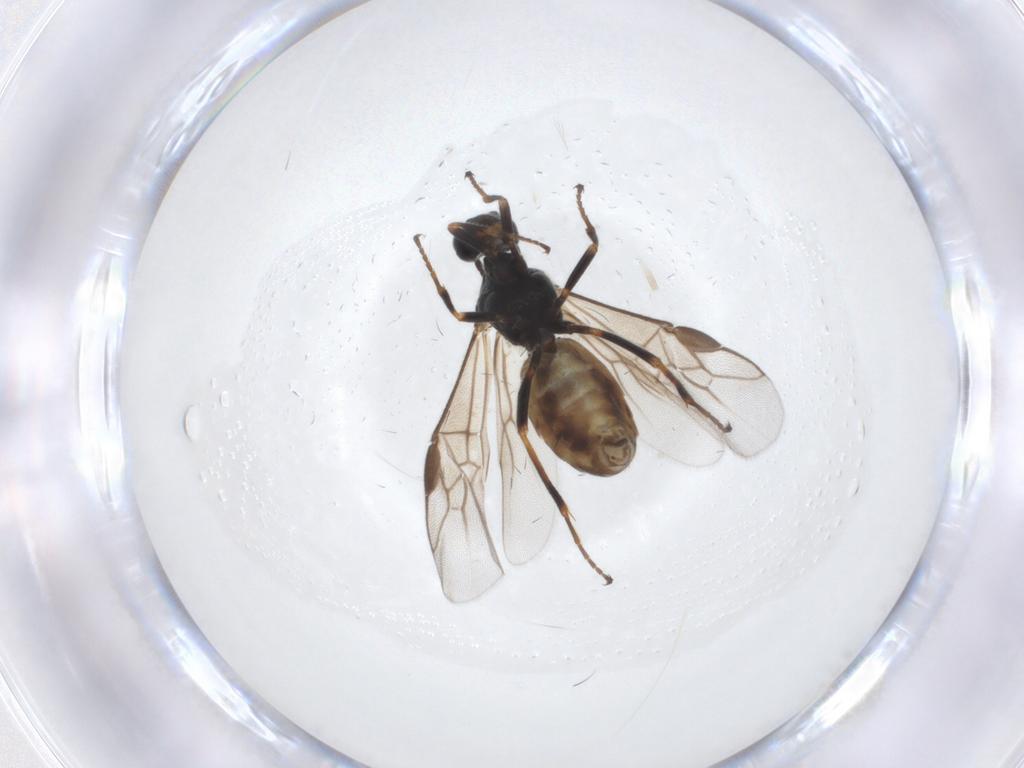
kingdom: Animalia
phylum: Arthropoda
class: Insecta
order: Hymenoptera
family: Braconidae
